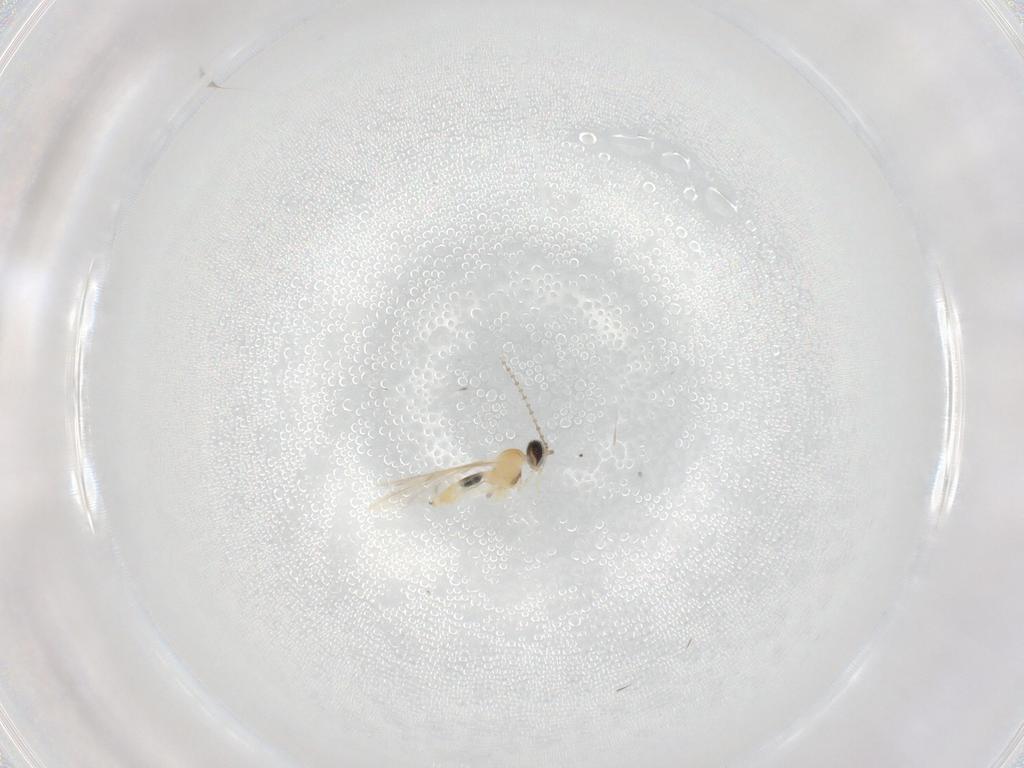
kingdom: Animalia
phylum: Arthropoda
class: Insecta
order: Diptera
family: Cecidomyiidae
